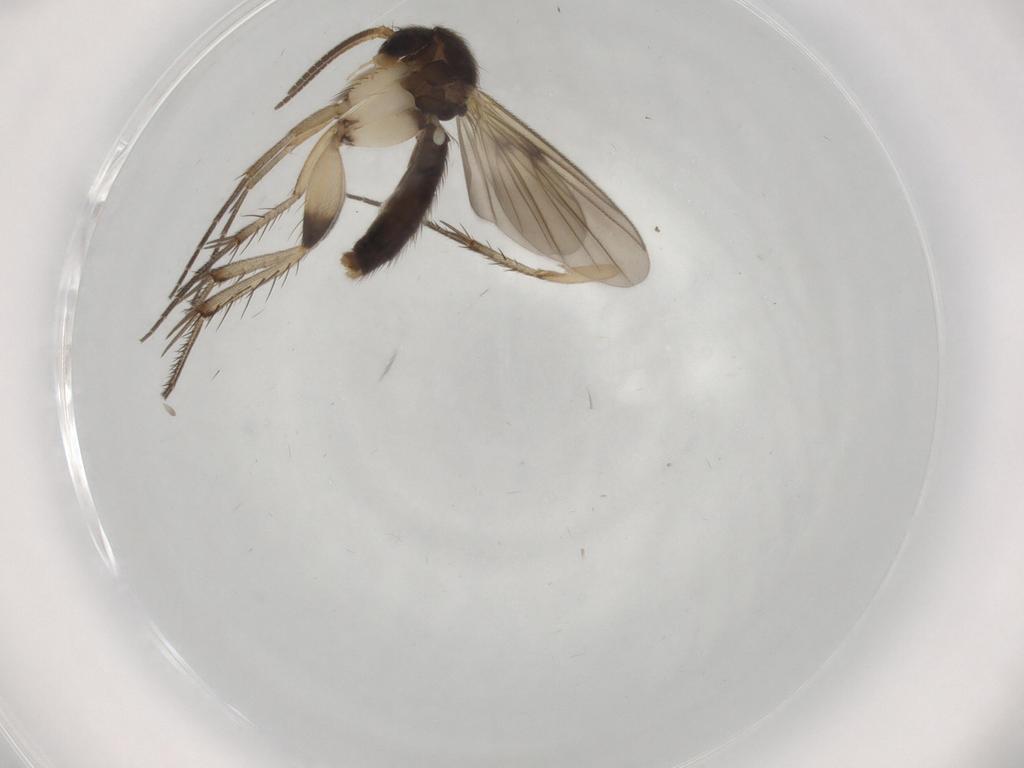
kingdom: Animalia
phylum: Arthropoda
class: Insecta
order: Diptera
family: Mycetophilidae
